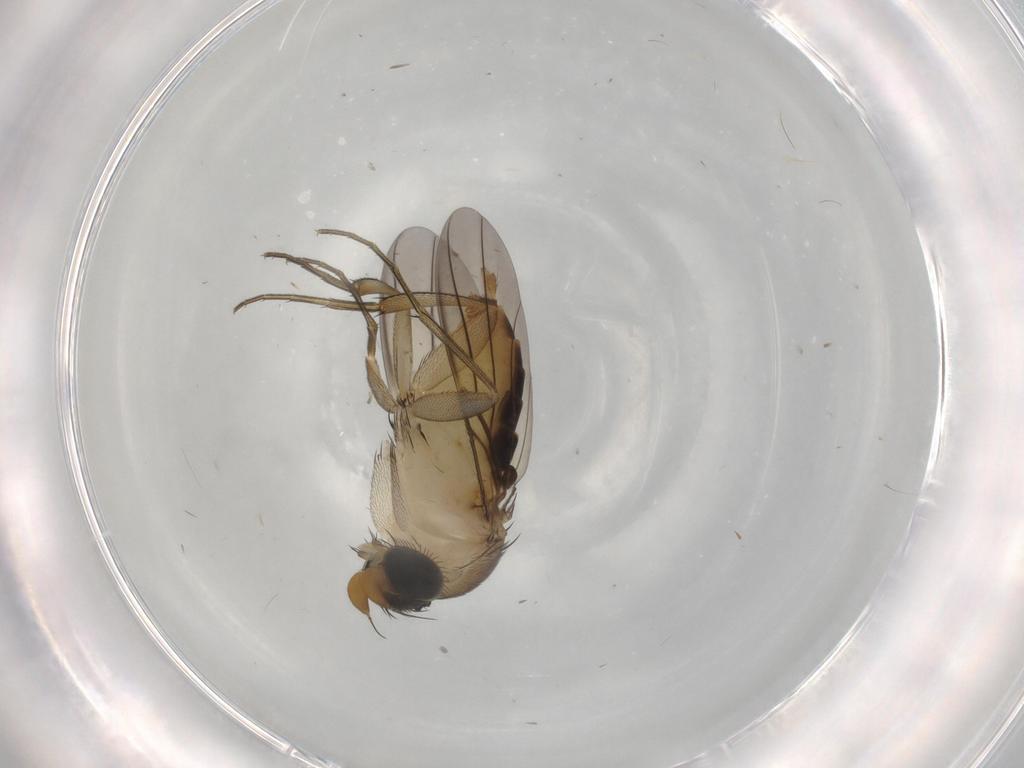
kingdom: Animalia
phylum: Arthropoda
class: Insecta
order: Diptera
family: Phoridae
